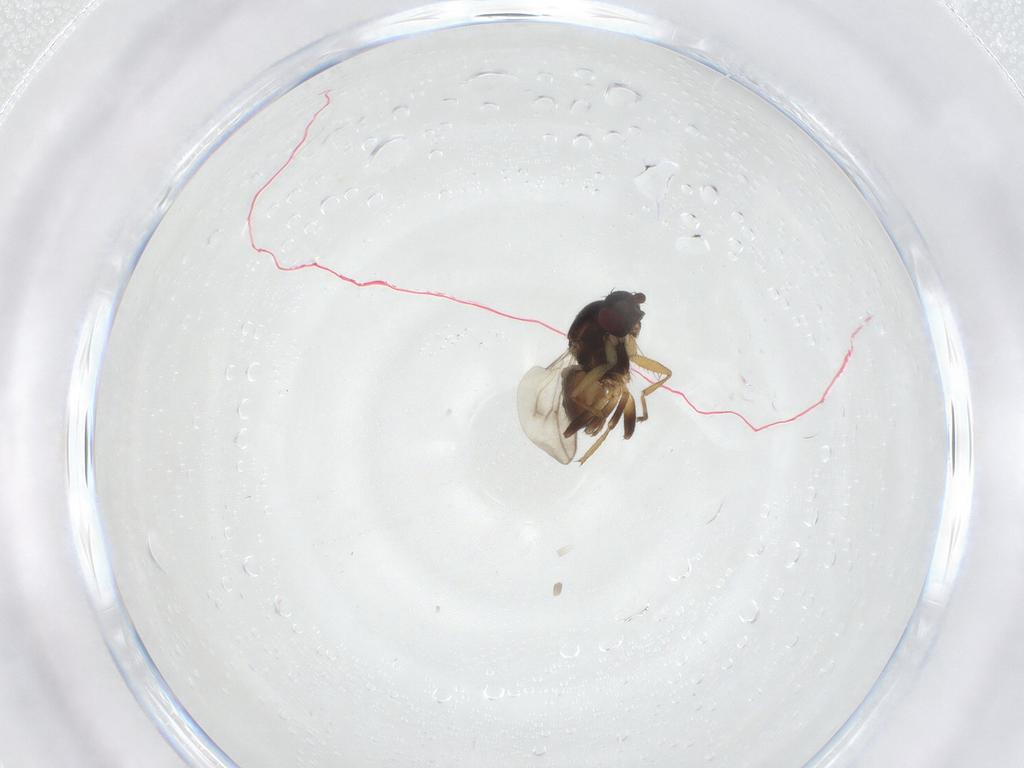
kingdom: Animalia
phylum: Arthropoda
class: Insecta
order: Diptera
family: Sphaeroceridae
